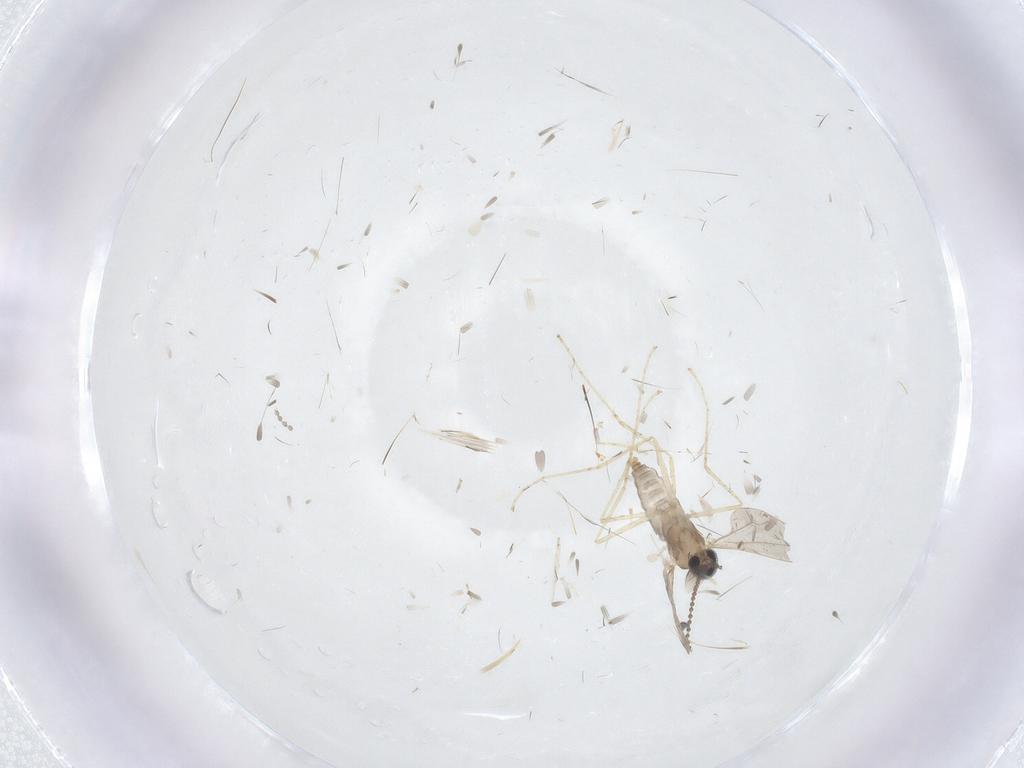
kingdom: Animalia
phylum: Arthropoda
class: Insecta
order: Diptera
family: Cecidomyiidae
